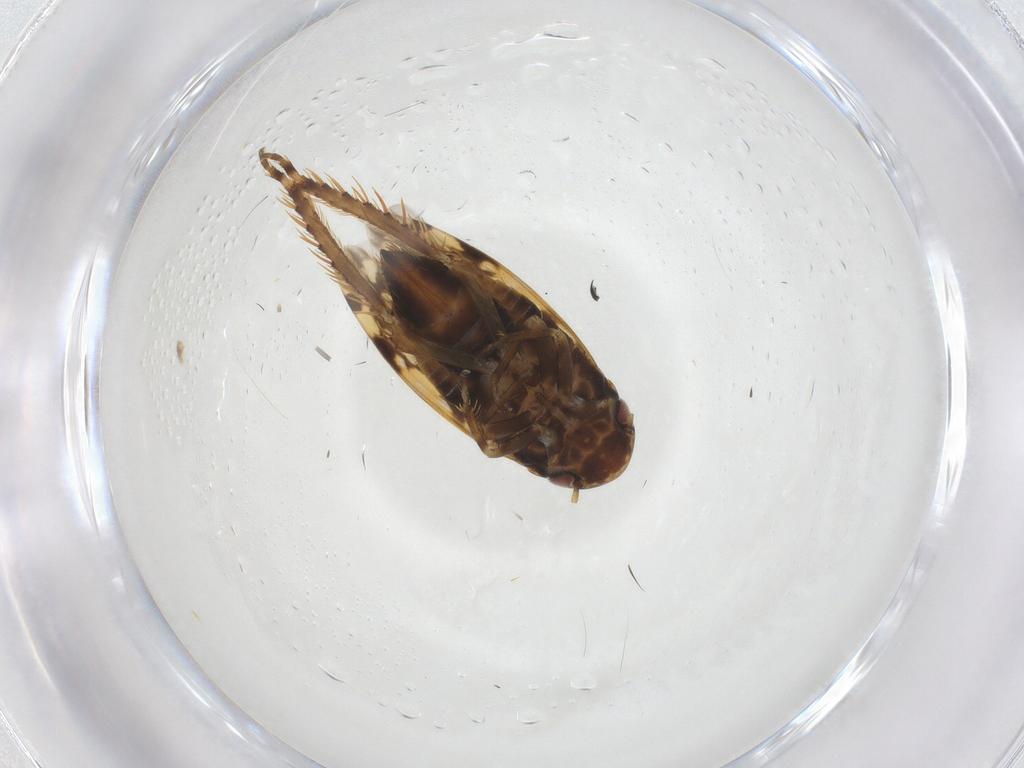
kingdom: Animalia
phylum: Arthropoda
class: Insecta
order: Hemiptera
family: Cicadellidae
